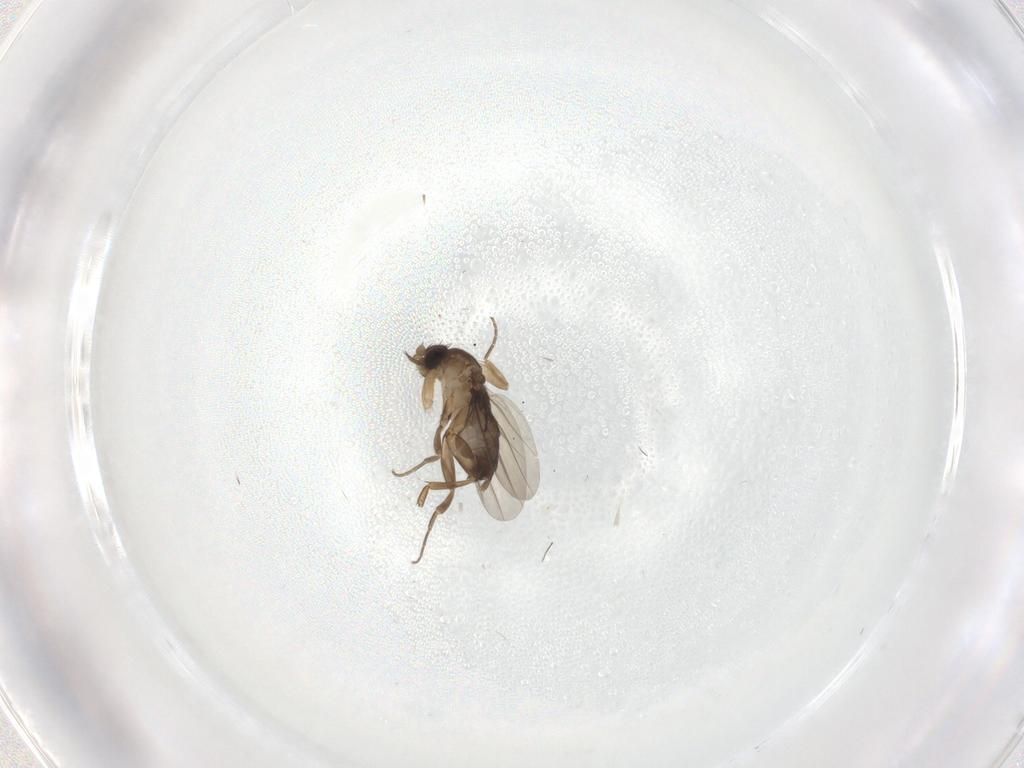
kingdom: Animalia
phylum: Arthropoda
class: Insecta
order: Diptera
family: Phoridae
